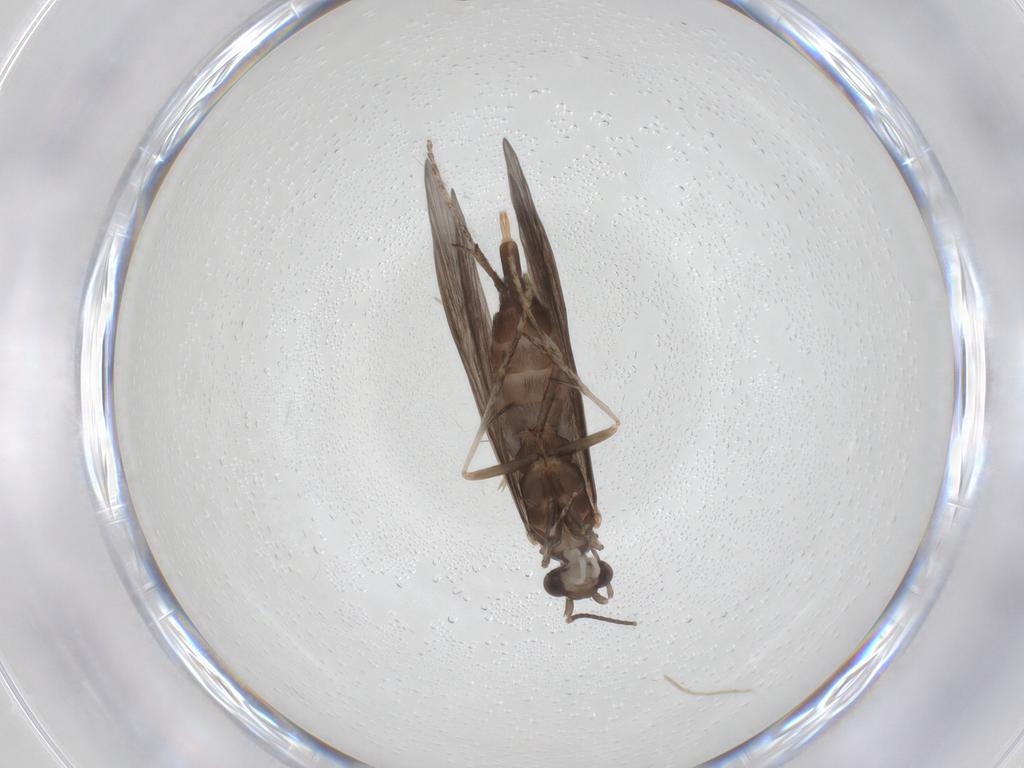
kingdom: Animalia
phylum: Arthropoda
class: Insecta
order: Trichoptera
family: Xiphocentronidae
